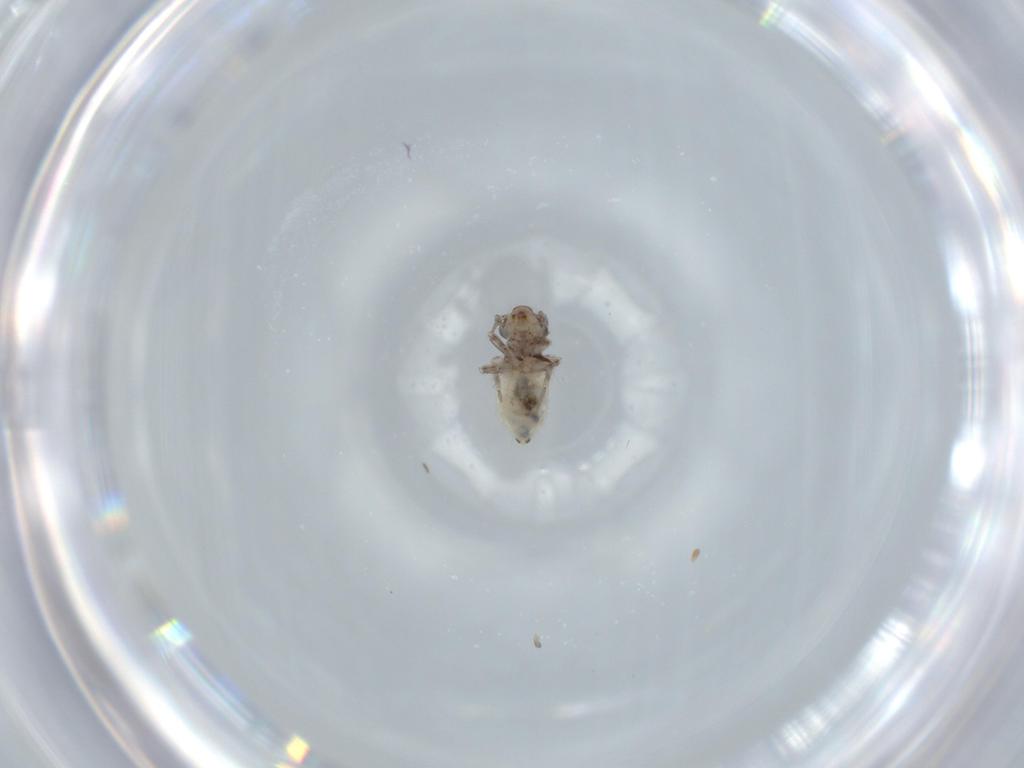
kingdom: Animalia
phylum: Arthropoda
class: Insecta
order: Psocodea
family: Lepidopsocidae
